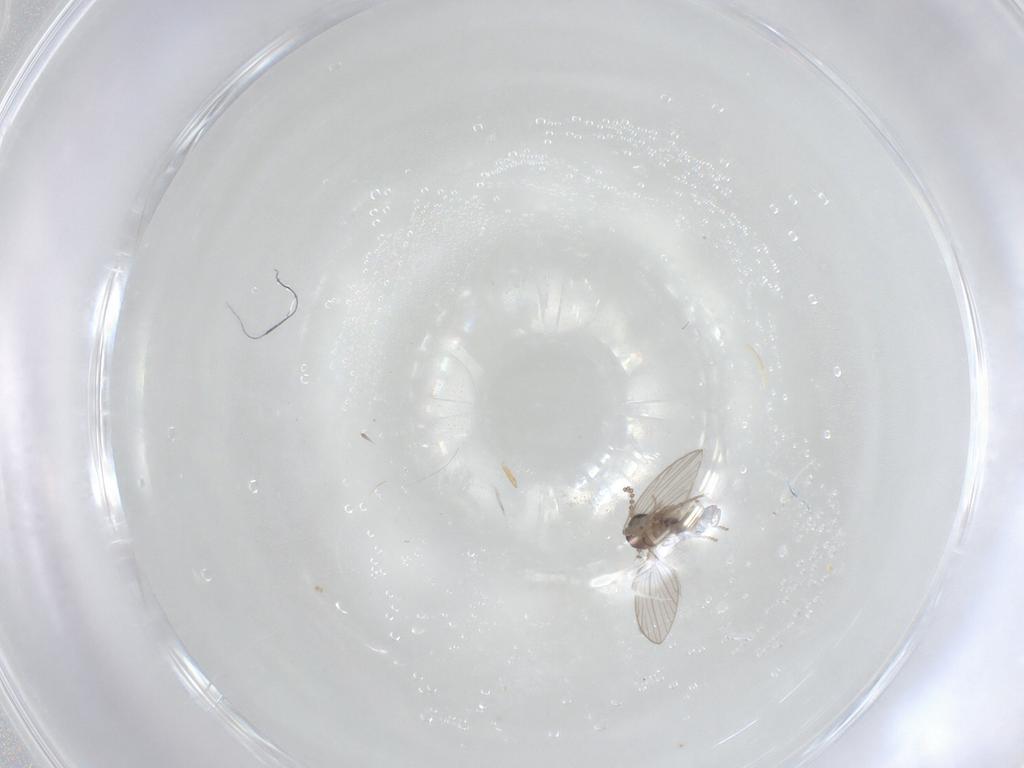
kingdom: Animalia
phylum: Arthropoda
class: Insecta
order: Diptera
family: Psychodidae
